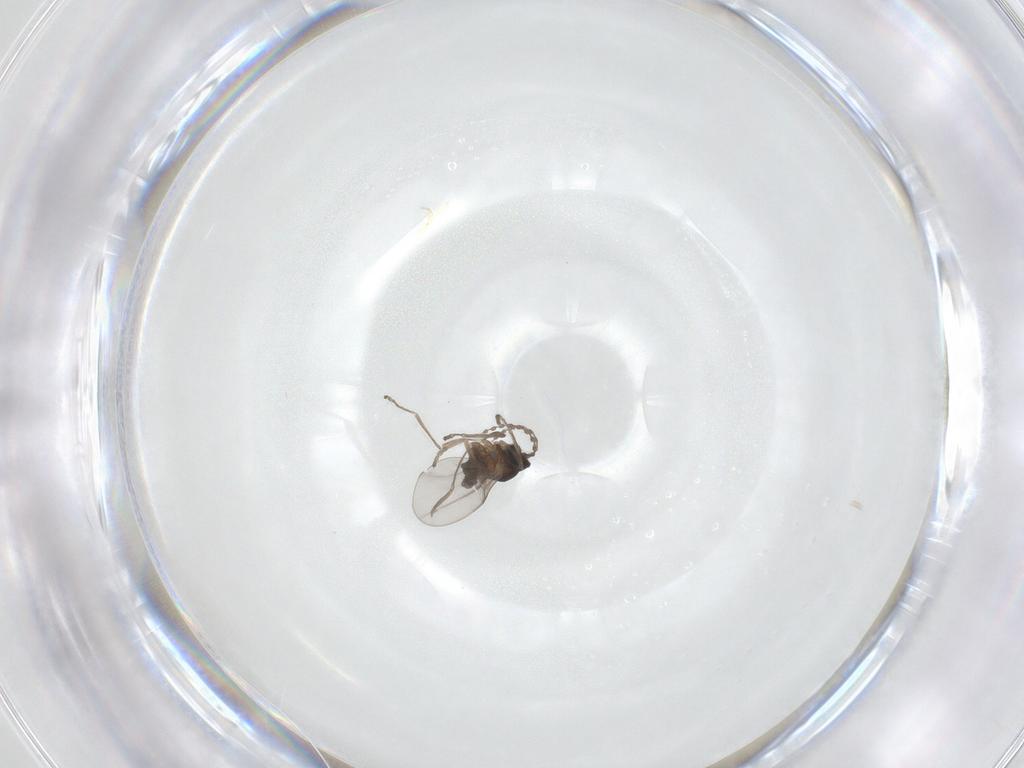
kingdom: Animalia
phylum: Arthropoda
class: Insecta
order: Diptera
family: Cecidomyiidae
